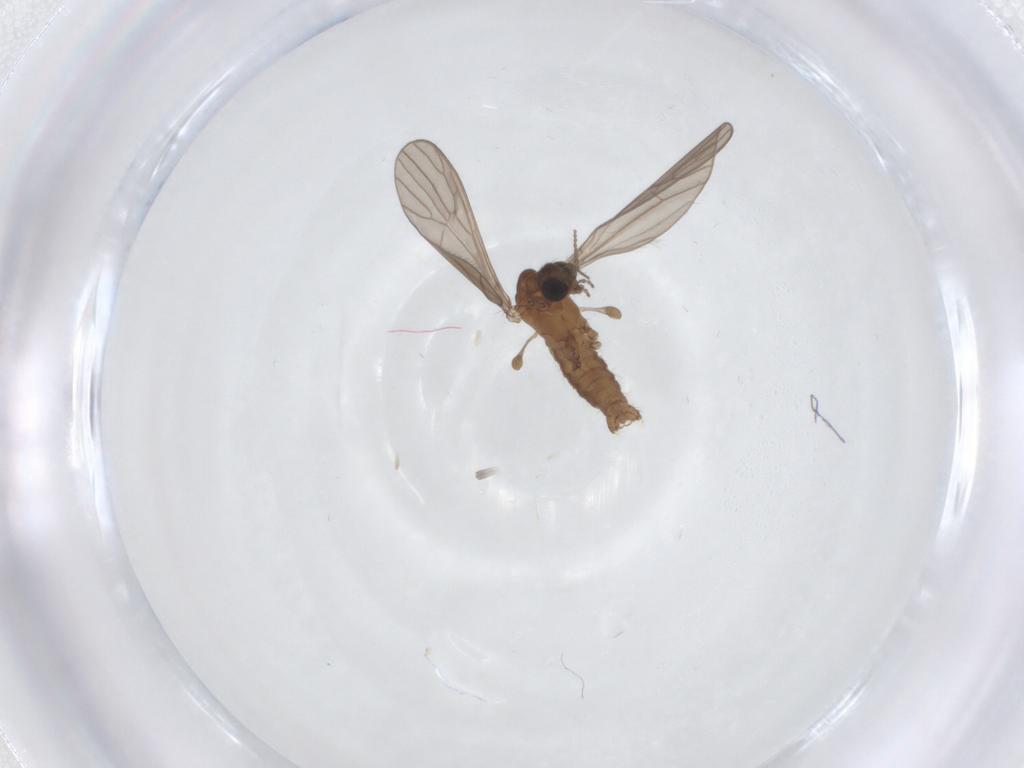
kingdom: Animalia
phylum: Arthropoda
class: Insecta
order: Diptera
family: Limoniidae
